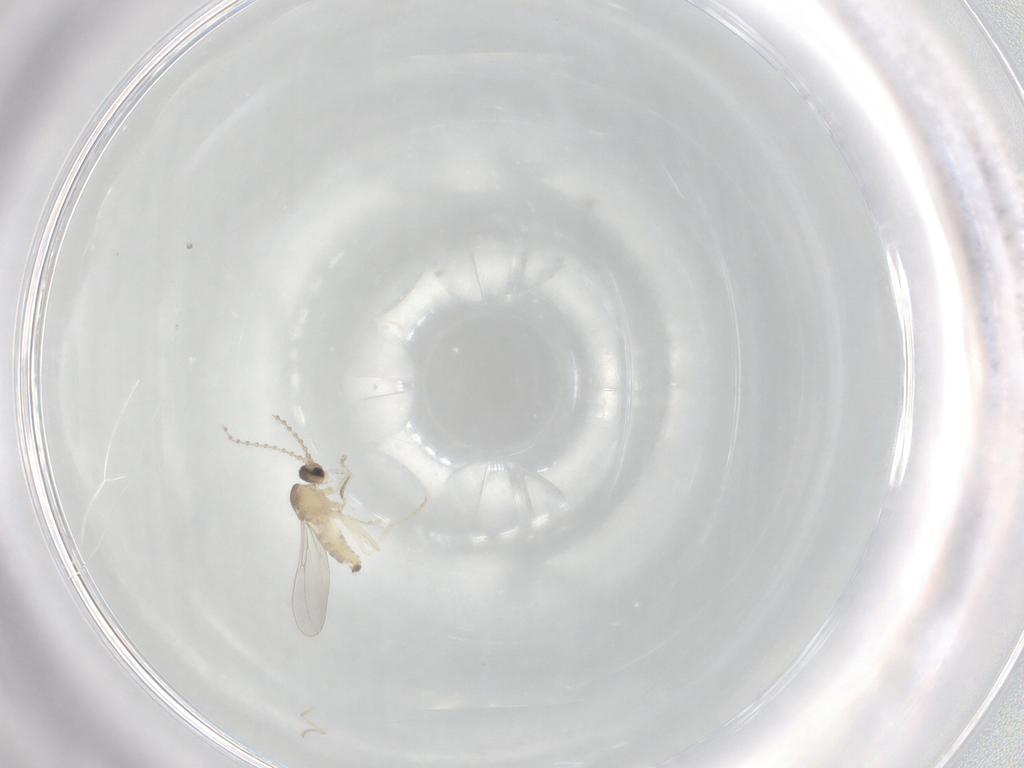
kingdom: Animalia
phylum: Arthropoda
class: Insecta
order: Diptera
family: Cecidomyiidae
